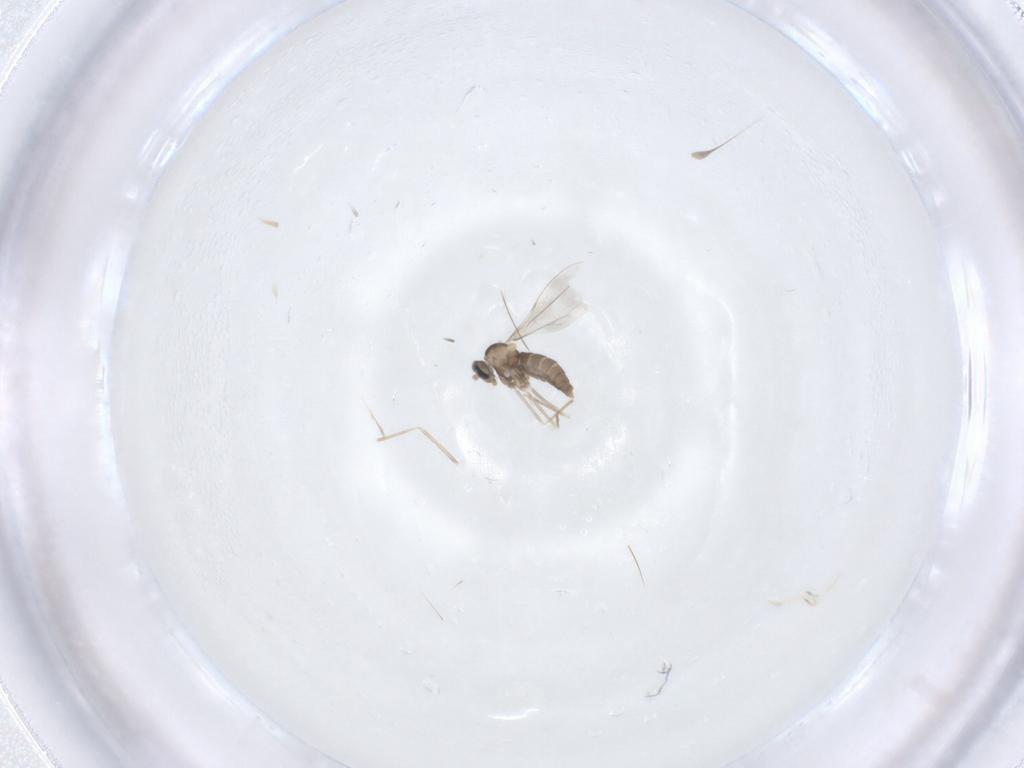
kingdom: Animalia
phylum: Arthropoda
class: Insecta
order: Diptera
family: Cecidomyiidae
